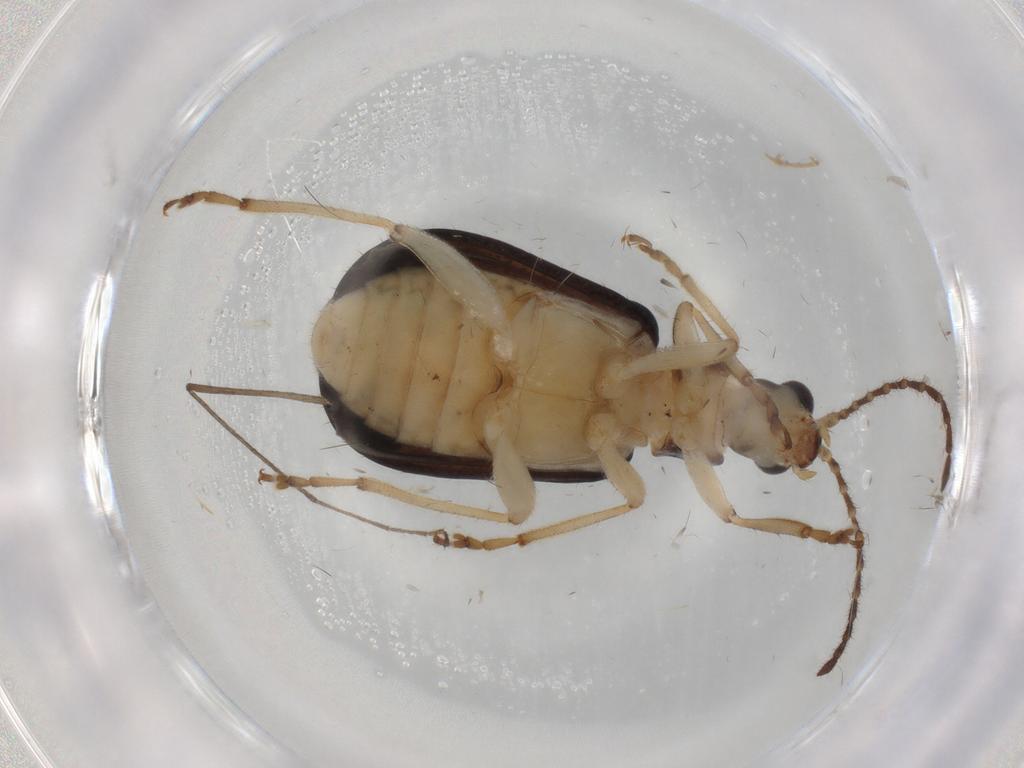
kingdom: Animalia
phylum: Arthropoda
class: Insecta
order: Coleoptera
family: Chrysomelidae
